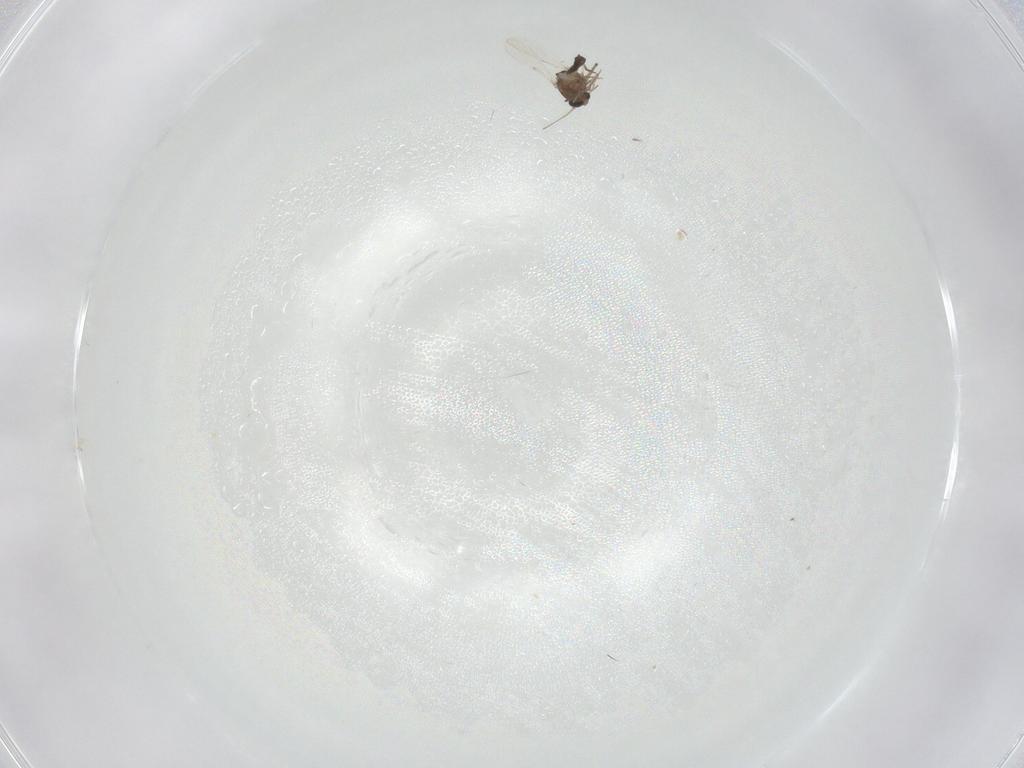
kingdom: Animalia
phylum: Arthropoda
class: Insecta
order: Diptera
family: Ceratopogonidae
